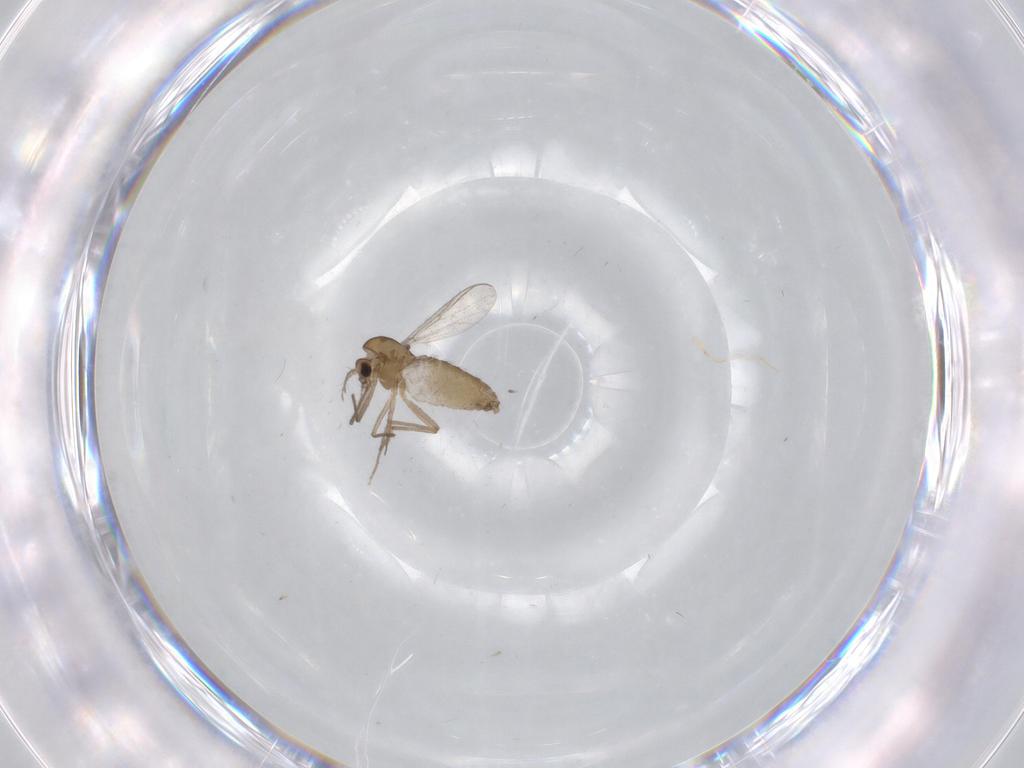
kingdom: Animalia
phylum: Arthropoda
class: Insecta
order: Diptera
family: Chironomidae
